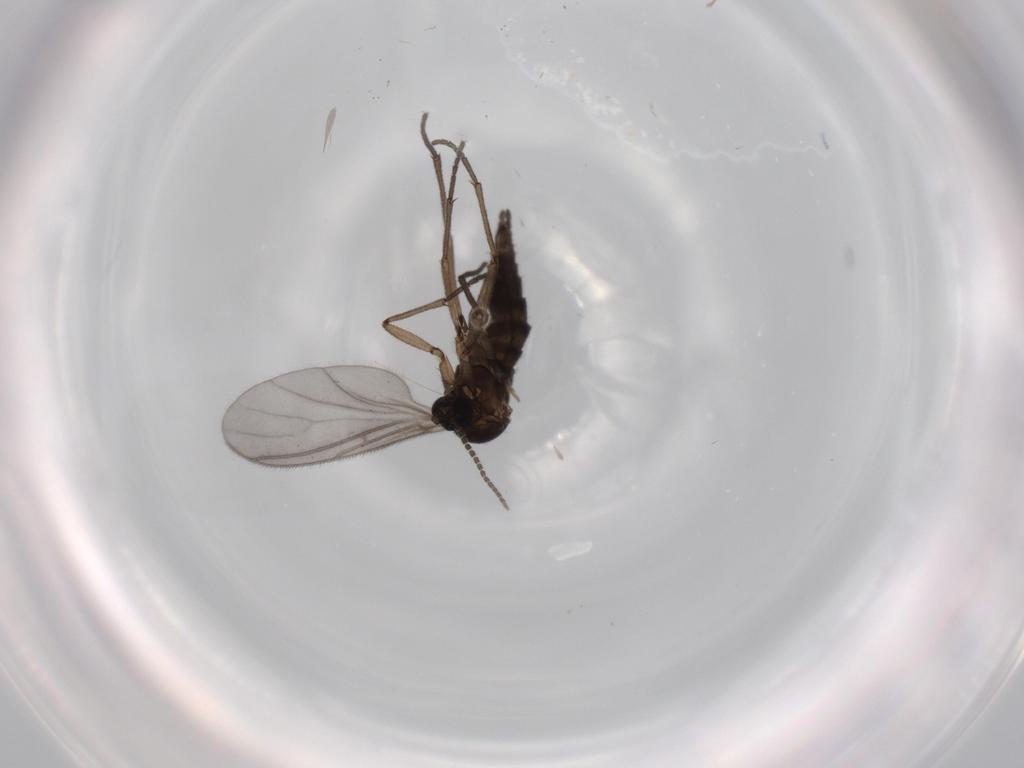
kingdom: Animalia
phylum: Arthropoda
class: Insecta
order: Diptera
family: Sciaridae
